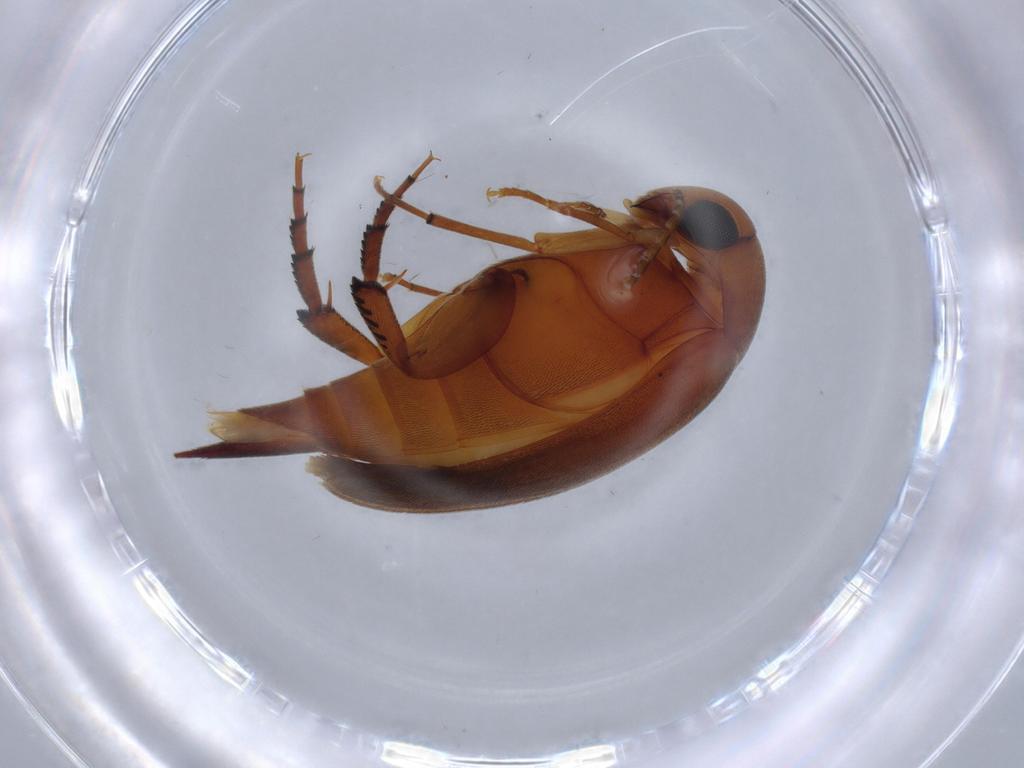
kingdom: Animalia
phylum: Arthropoda
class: Insecta
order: Coleoptera
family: Mordellidae
